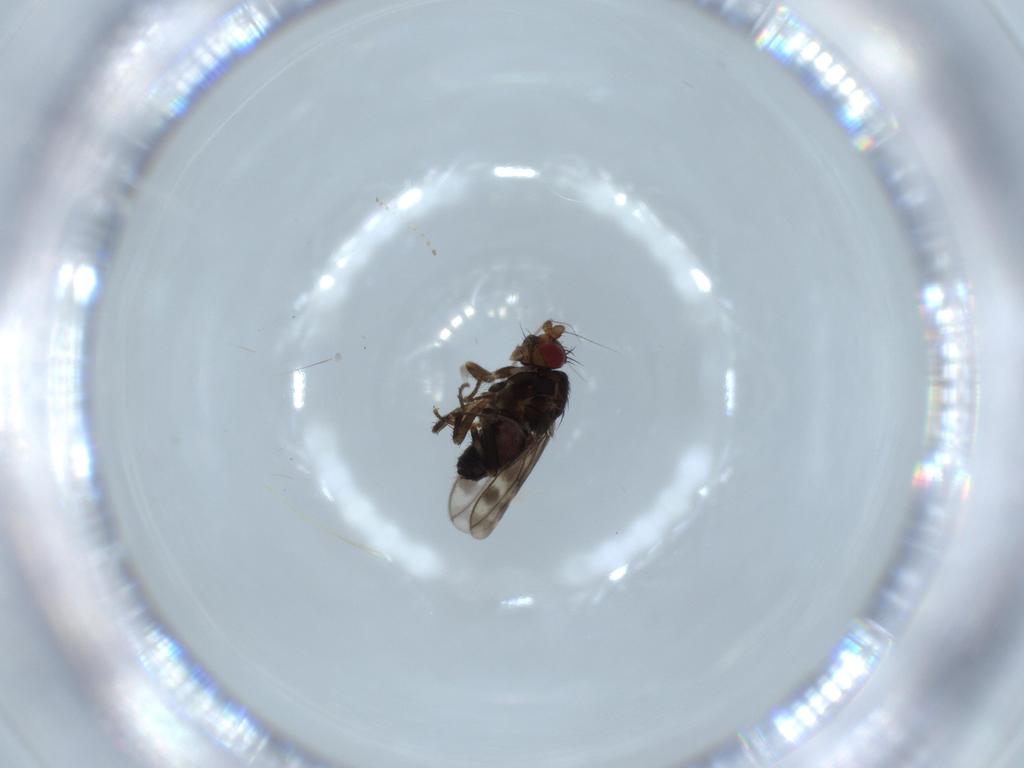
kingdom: Animalia
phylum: Arthropoda
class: Insecta
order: Diptera
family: Sphaeroceridae
